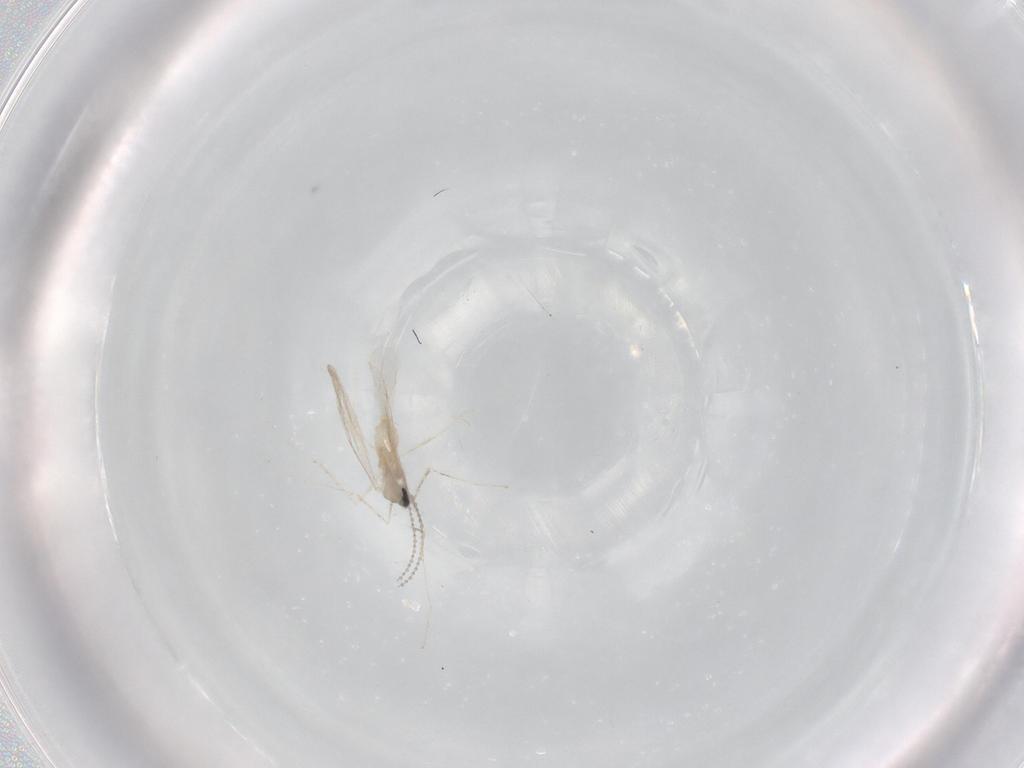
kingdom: Animalia
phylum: Arthropoda
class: Insecta
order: Diptera
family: Cecidomyiidae
